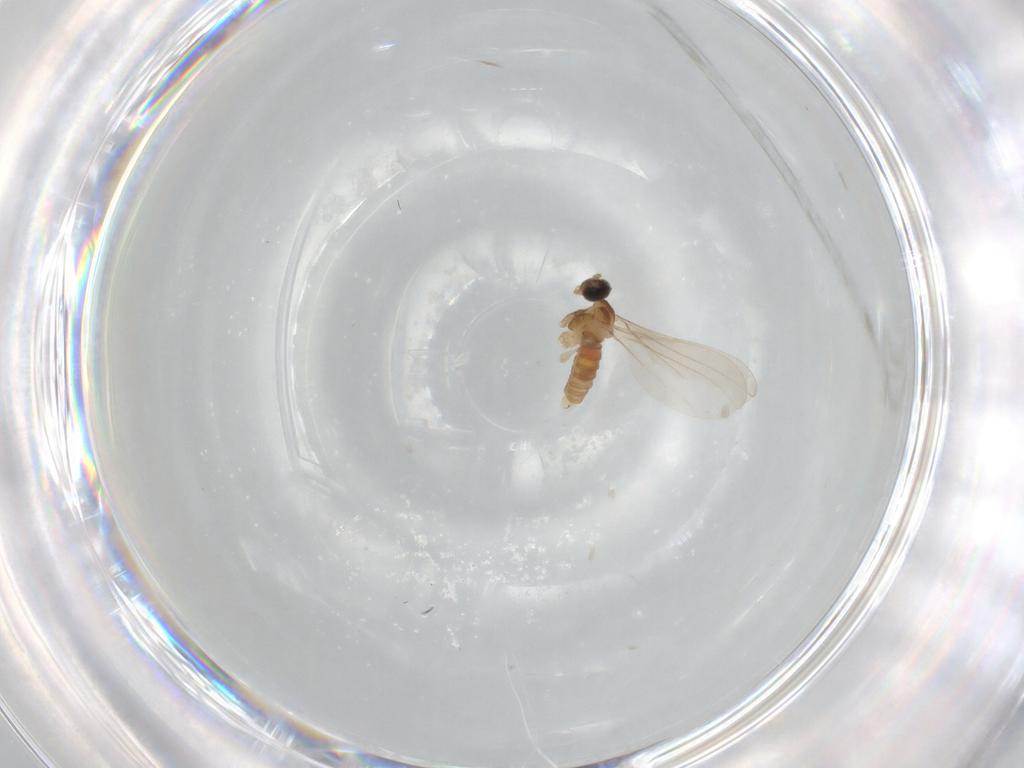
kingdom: Animalia
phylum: Arthropoda
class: Insecta
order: Diptera
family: Cecidomyiidae
